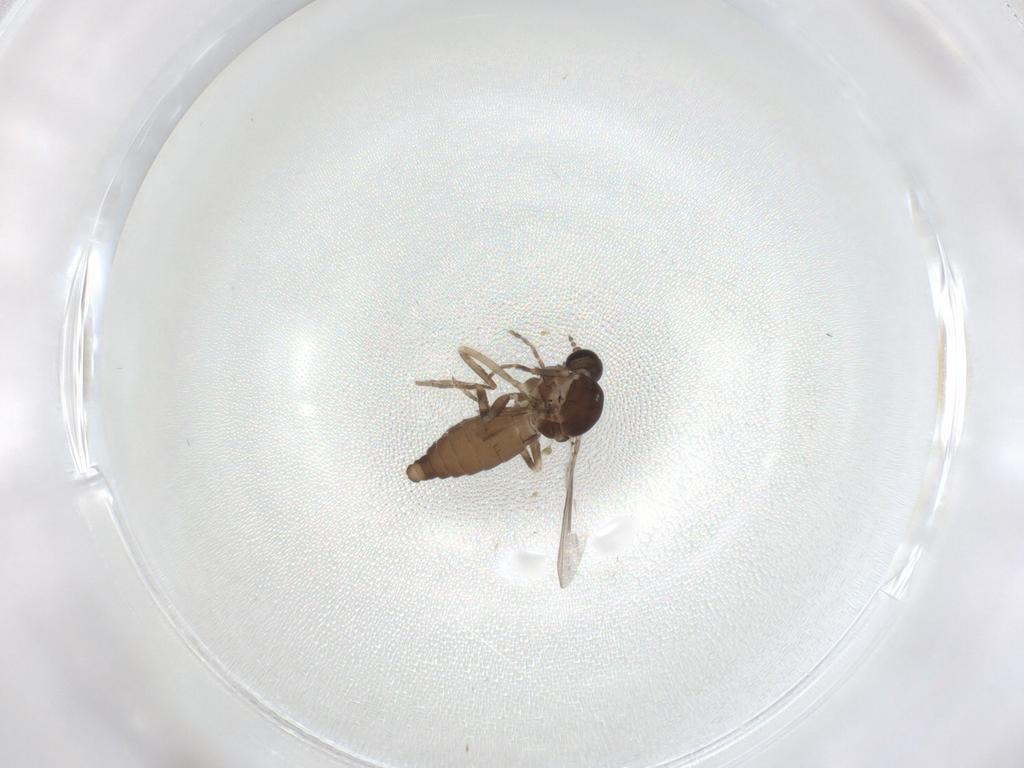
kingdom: Animalia
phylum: Arthropoda
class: Insecta
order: Diptera
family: Ceratopogonidae
